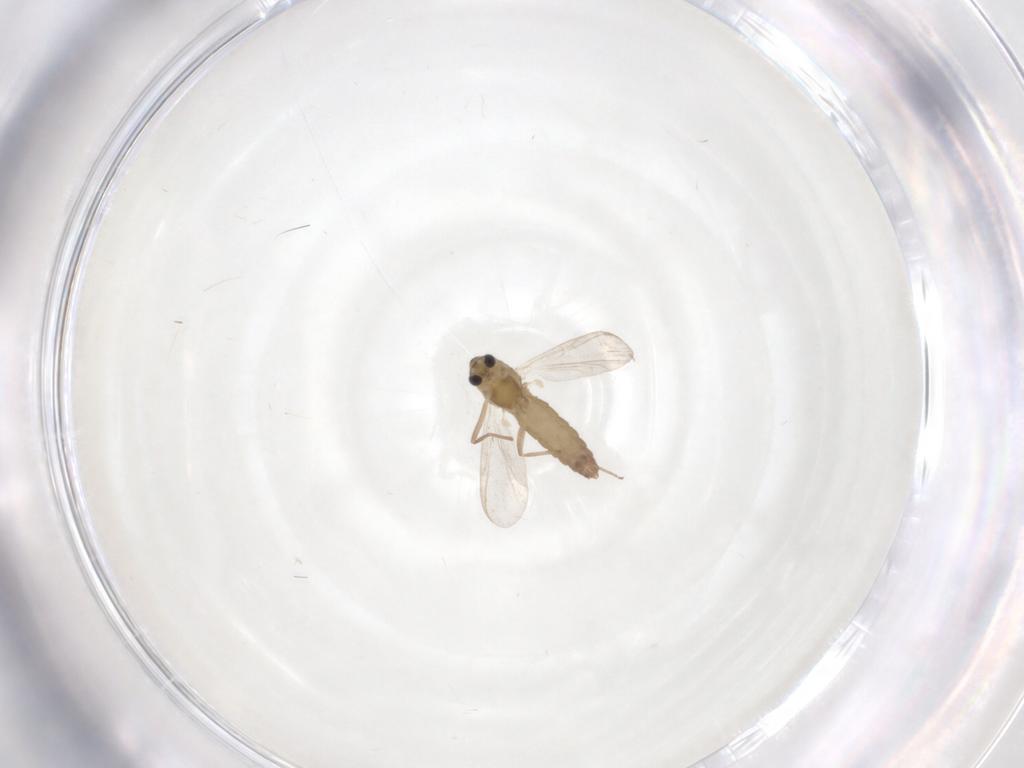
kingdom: Animalia
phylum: Arthropoda
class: Insecta
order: Diptera
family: Chironomidae
